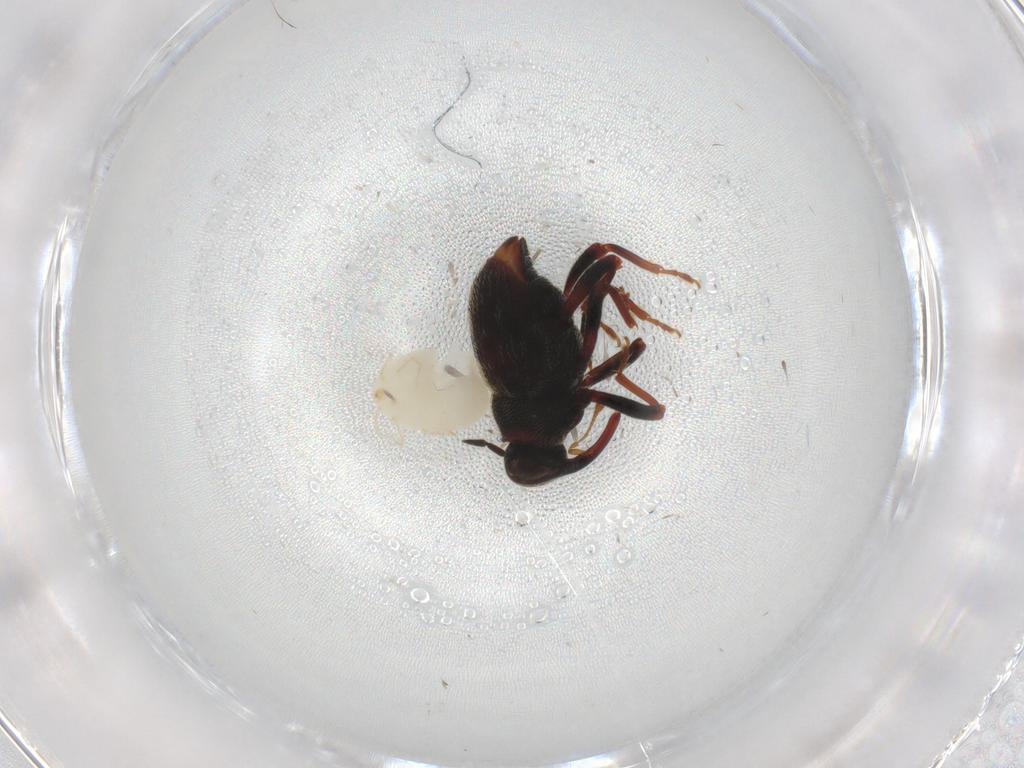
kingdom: Animalia
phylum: Arthropoda
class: Insecta
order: Coleoptera
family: Chrysomelidae
